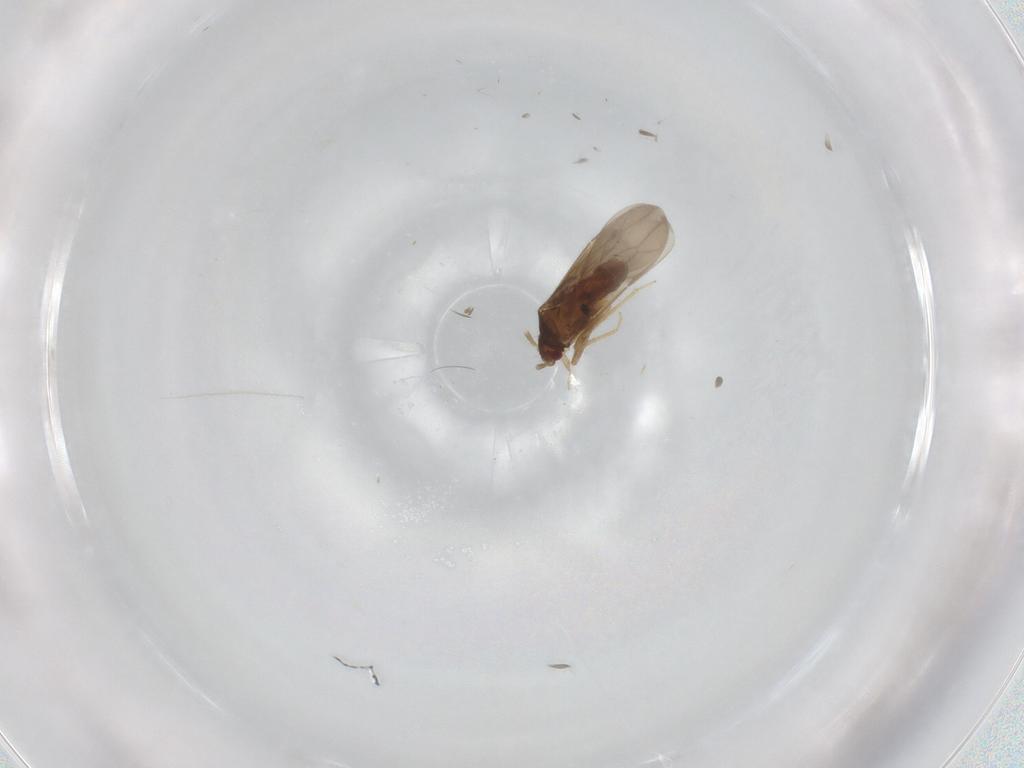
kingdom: Animalia
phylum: Arthropoda
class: Insecta
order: Hemiptera
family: Ceratocombidae
